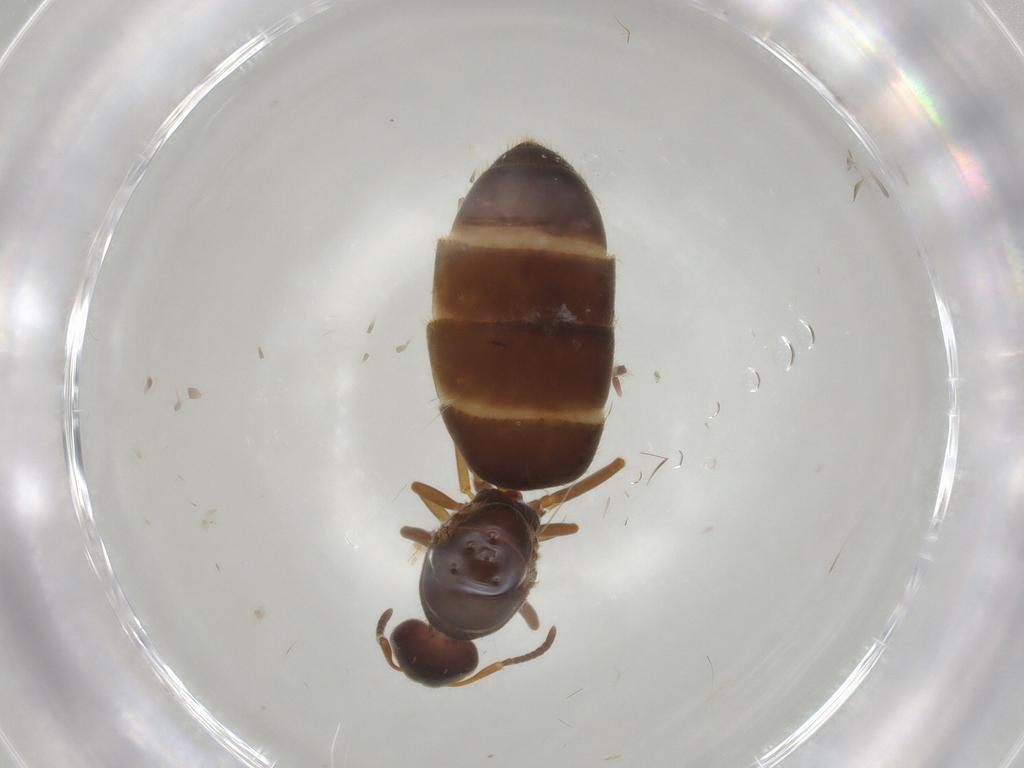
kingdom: Animalia
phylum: Arthropoda
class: Insecta
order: Hymenoptera
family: Formicidae
